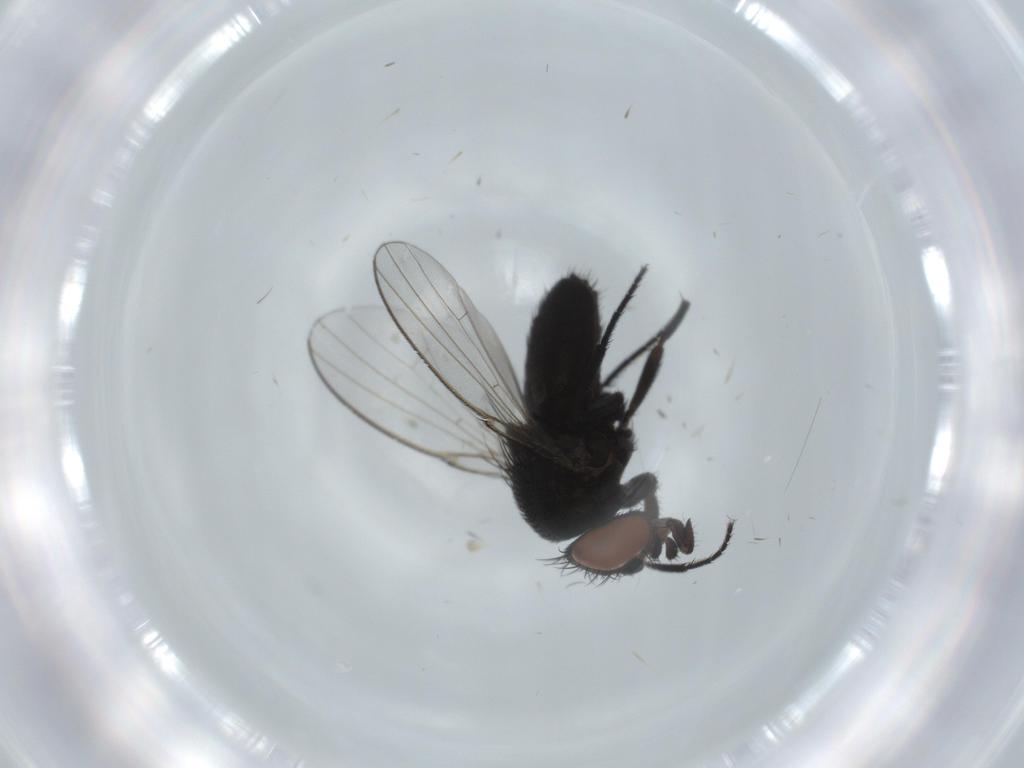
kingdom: Animalia
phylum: Arthropoda
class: Insecta
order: Diptera
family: Milichiidae
